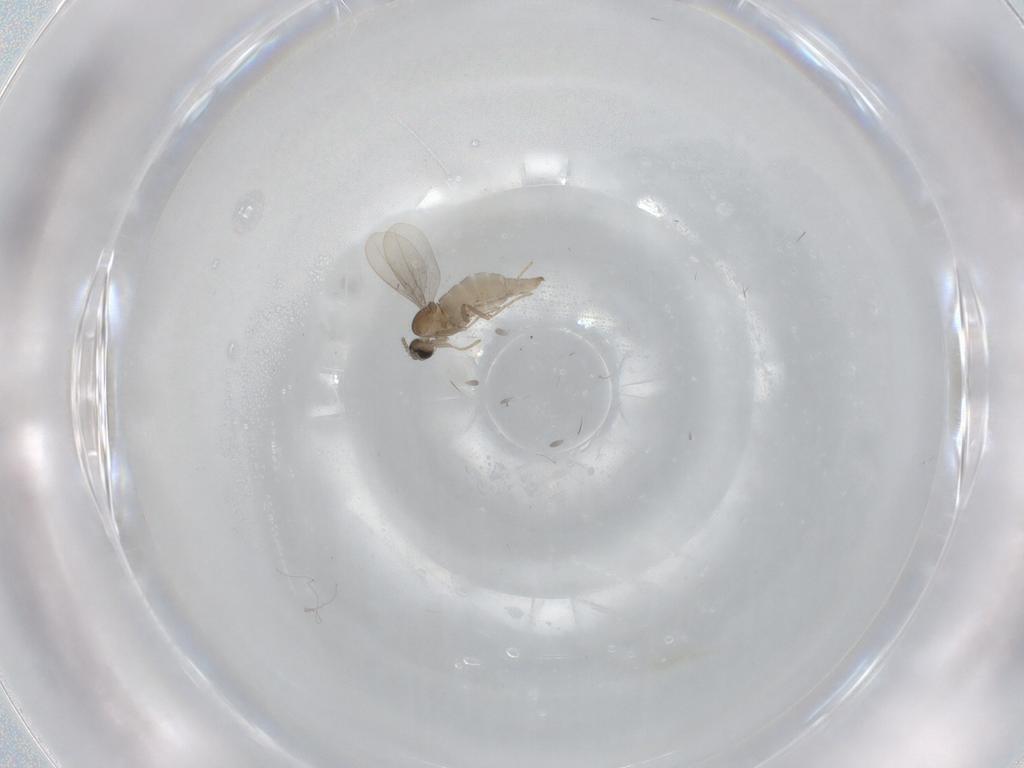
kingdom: Animalia
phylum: Arthropoda
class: Insecta
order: Diptera
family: Cecidomyiidae
